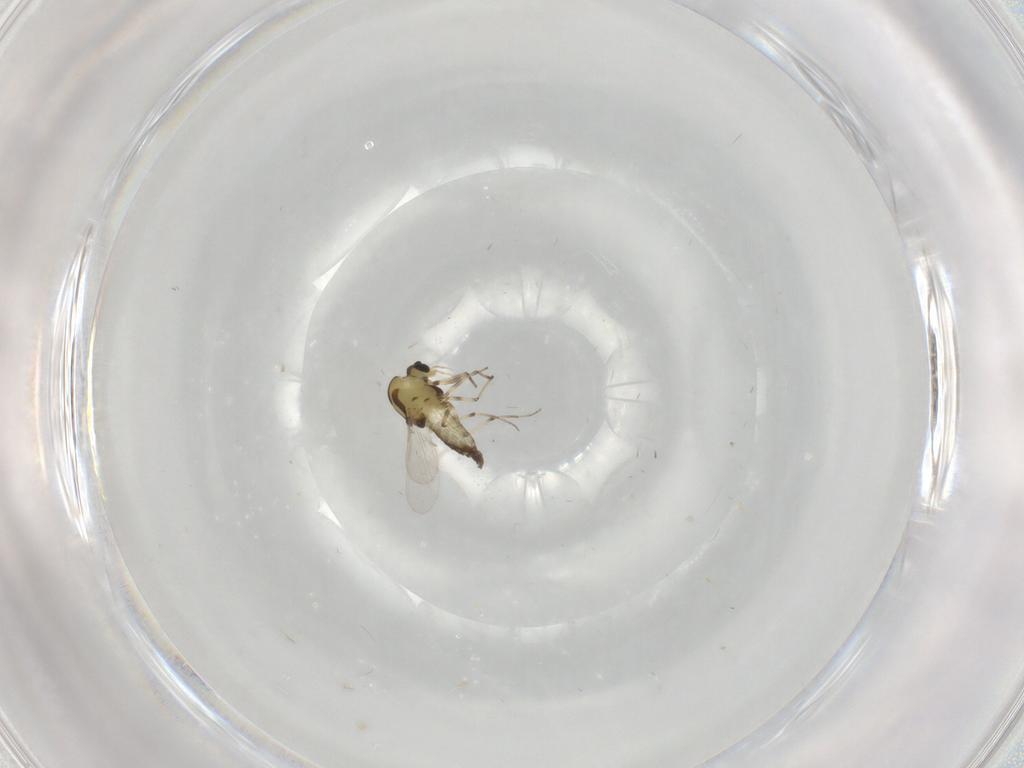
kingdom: Animalia
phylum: Arthropoda
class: Insecta
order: Diptera
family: Chironomidae
